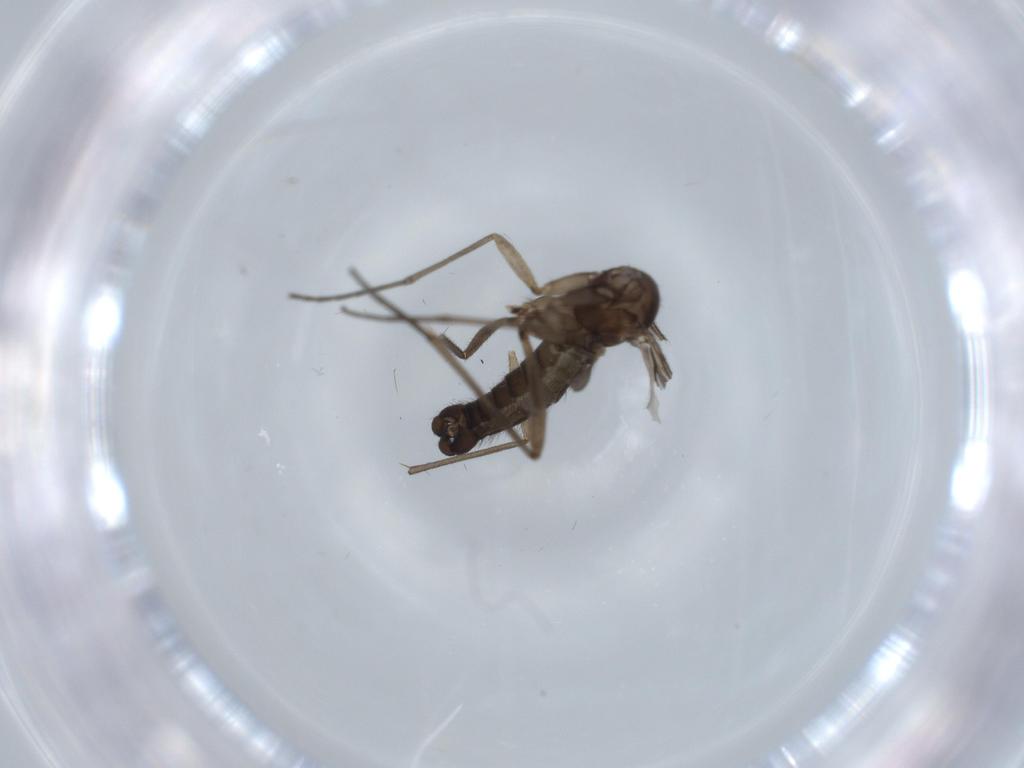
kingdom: Animalia
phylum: Arthropoda
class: Insecta
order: Diptera
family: Sciaridae
